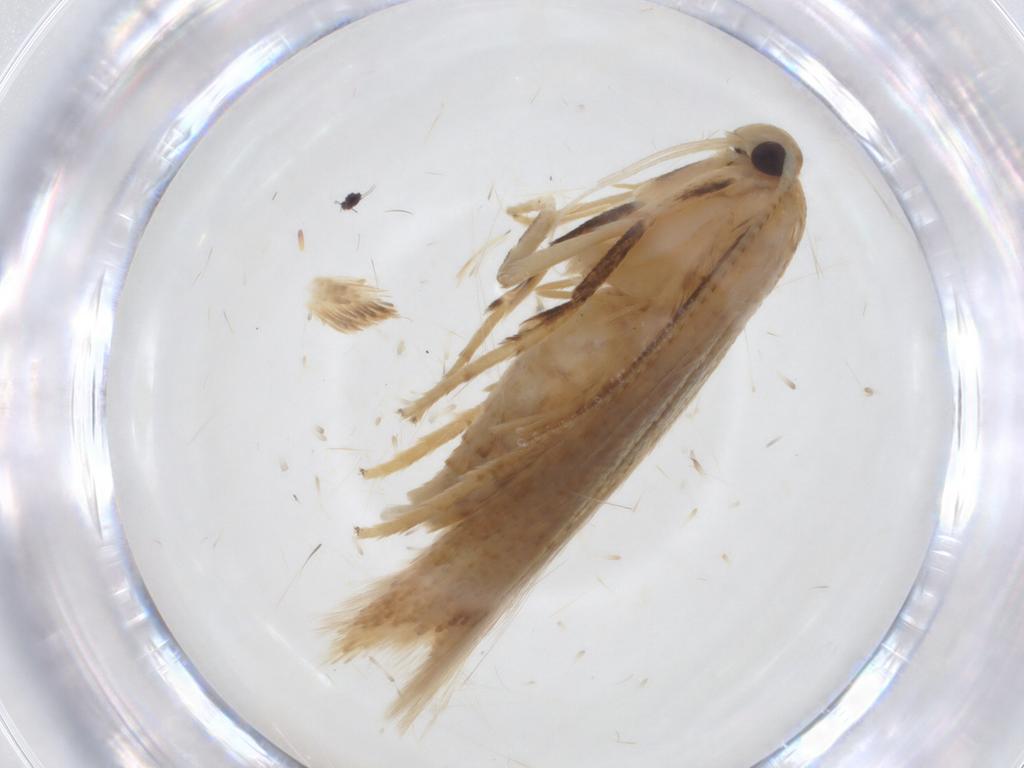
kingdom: Animalia
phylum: Arthropoda
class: Insecta
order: Lepidoptera
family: Stathmopodidae
